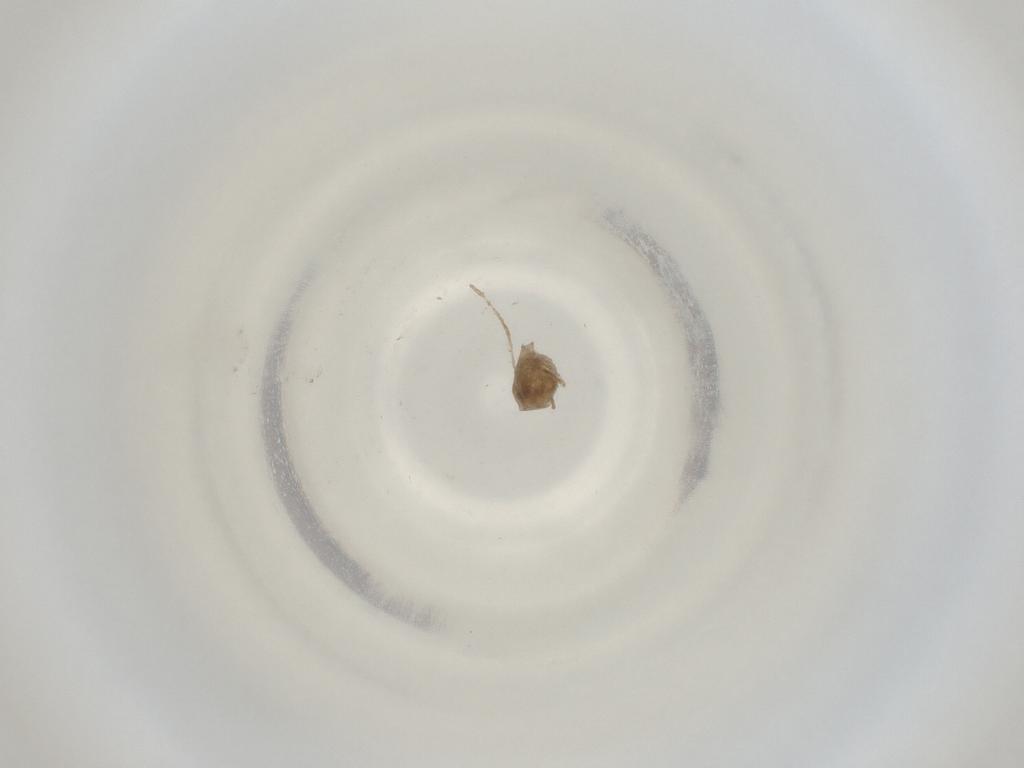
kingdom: Animalia
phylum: Arthropoda
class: Insecta
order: Diptera
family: Cecidomyiidae
